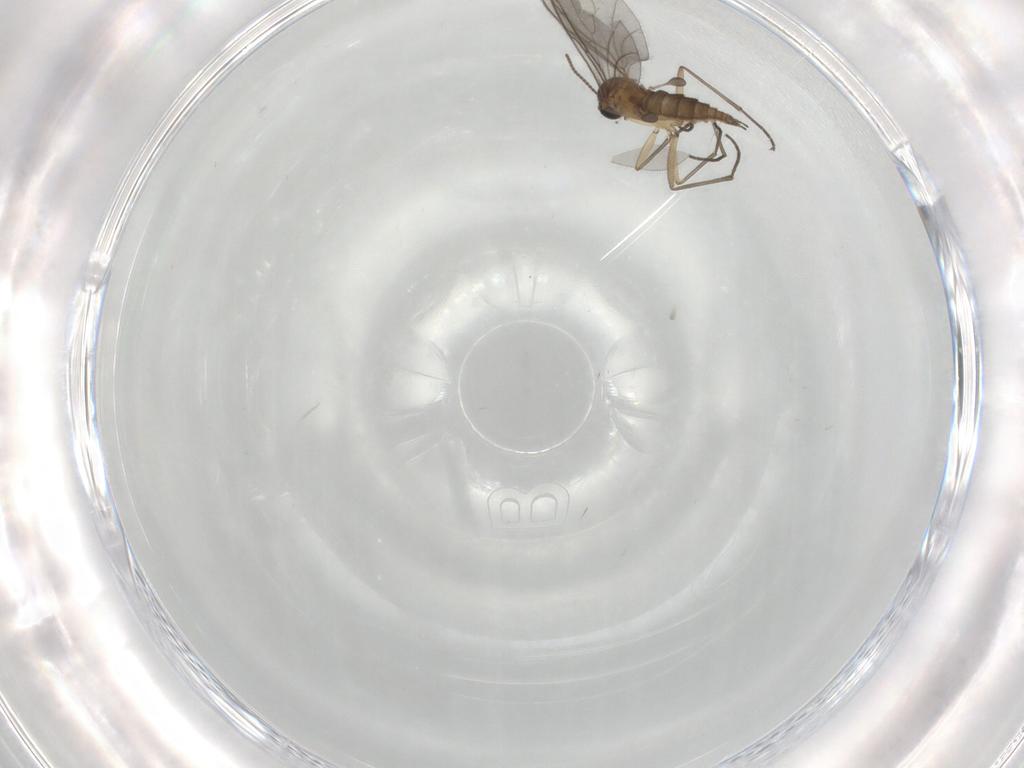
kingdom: Animalia
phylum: Arthropoda
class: Insecta
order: Diptera
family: Cecidomyiidae
